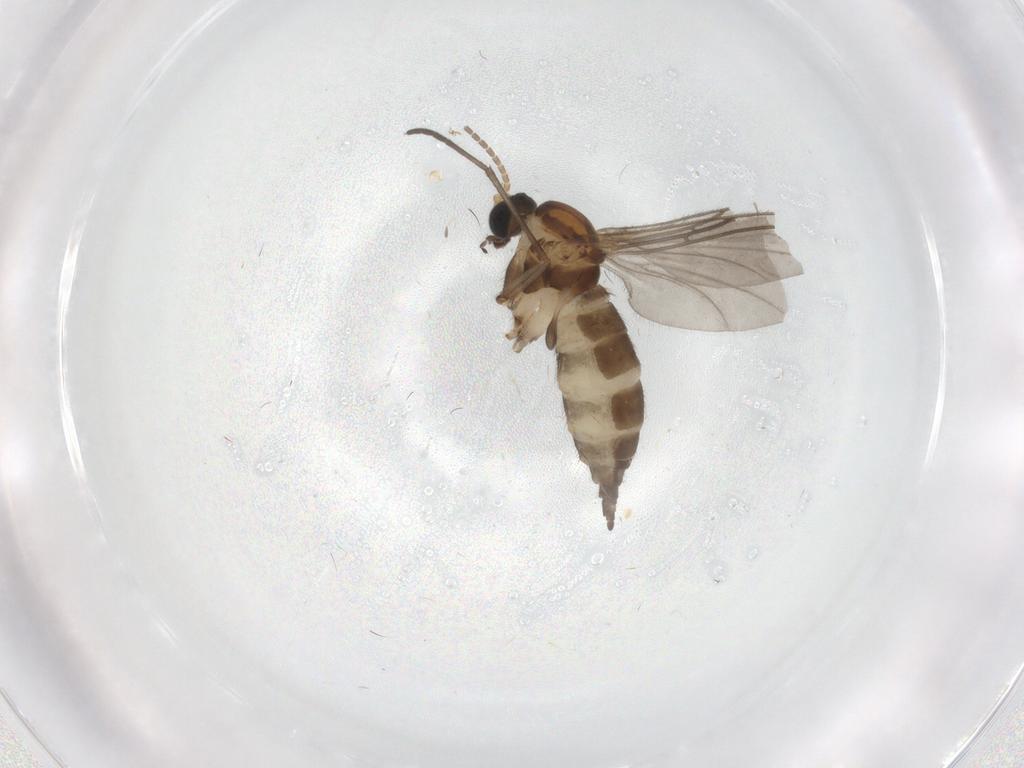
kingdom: Animalia
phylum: Arthropoda
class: Insecta
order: Diptera
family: Sciaridae
